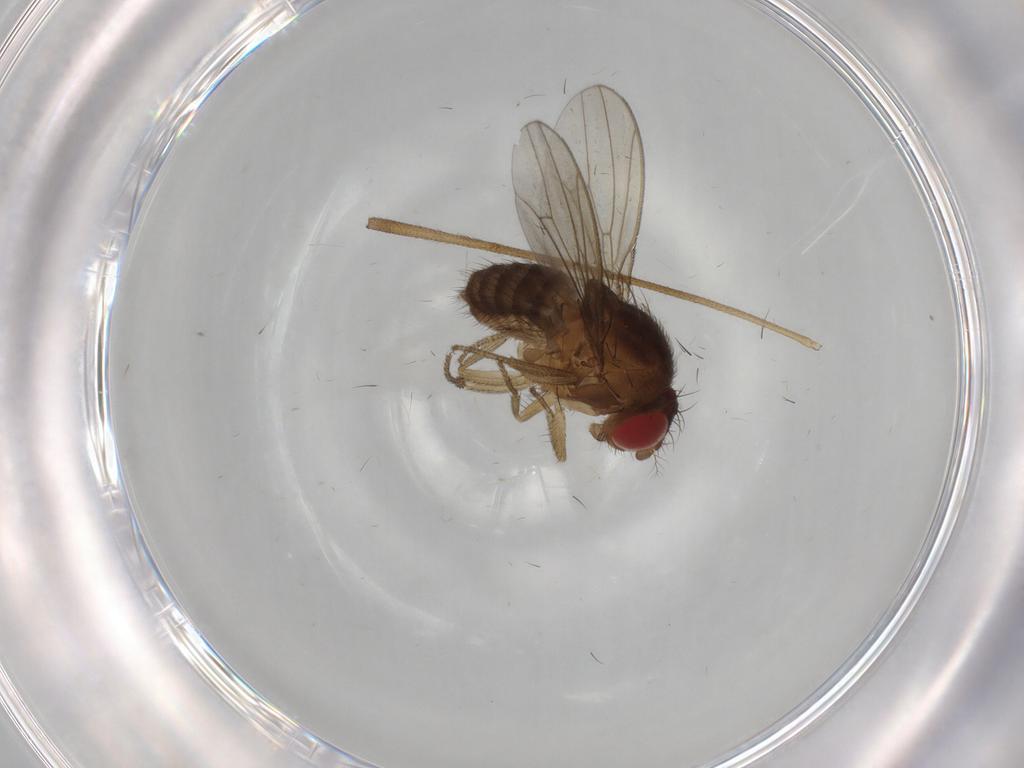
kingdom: Animalia
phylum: Arthropoda
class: Insecta
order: Diptera
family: Drosophilidae
